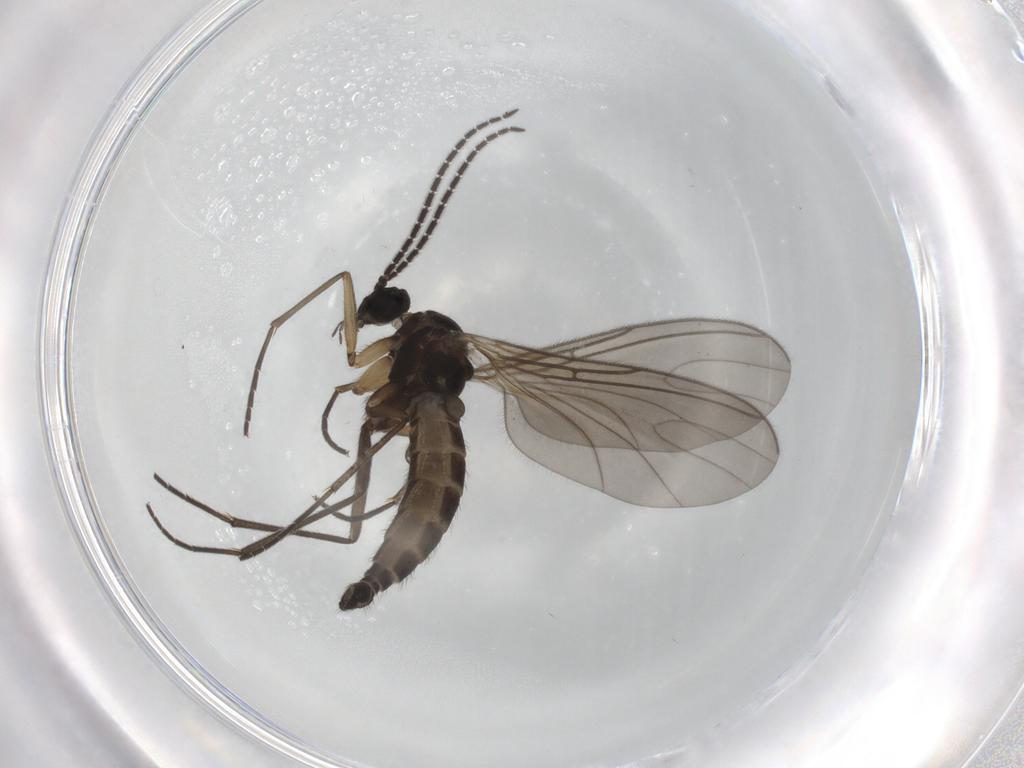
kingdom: Animalia
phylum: Arthropoda
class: Insecta
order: Diptera
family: Sciaridae
